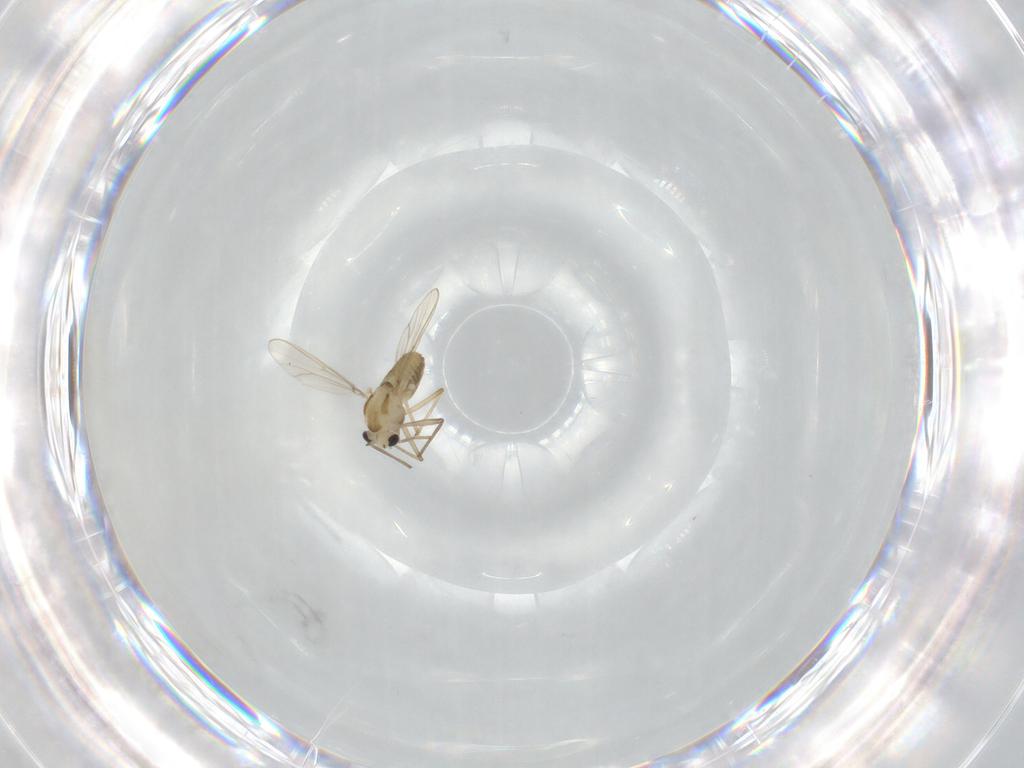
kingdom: Animalia
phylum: Arthropoda
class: Insecta
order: Diptera
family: Chironomidae
